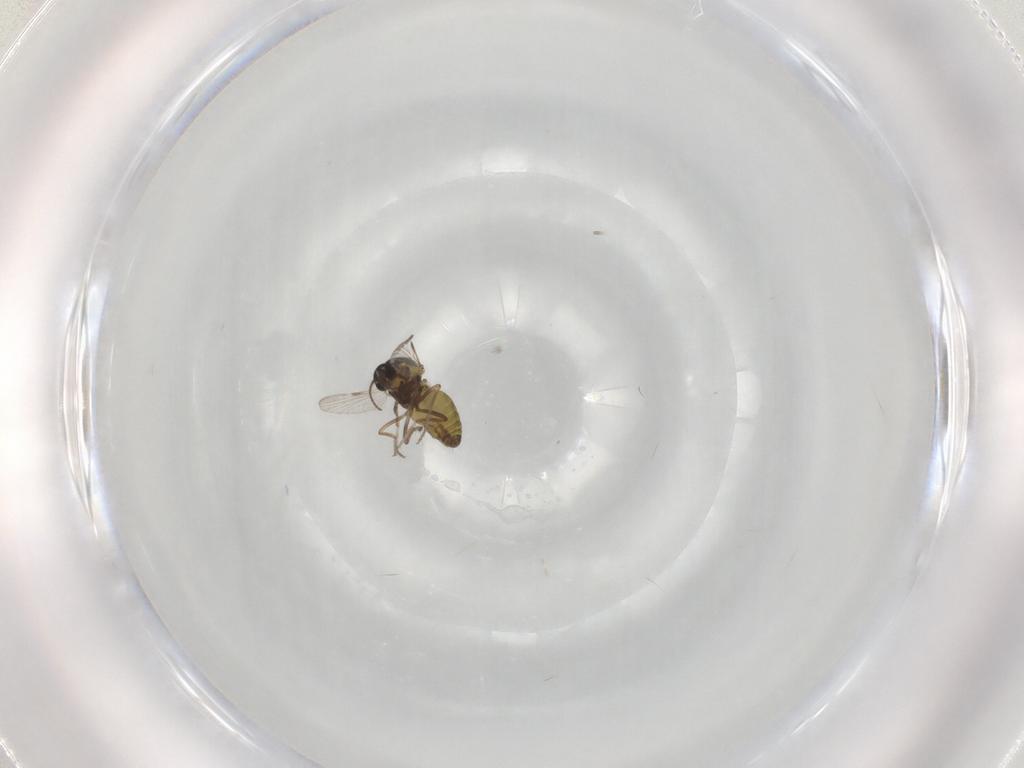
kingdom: Animalia
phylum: Arthropoda
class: Insecta
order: Diptera
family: Ceratopogonidae
